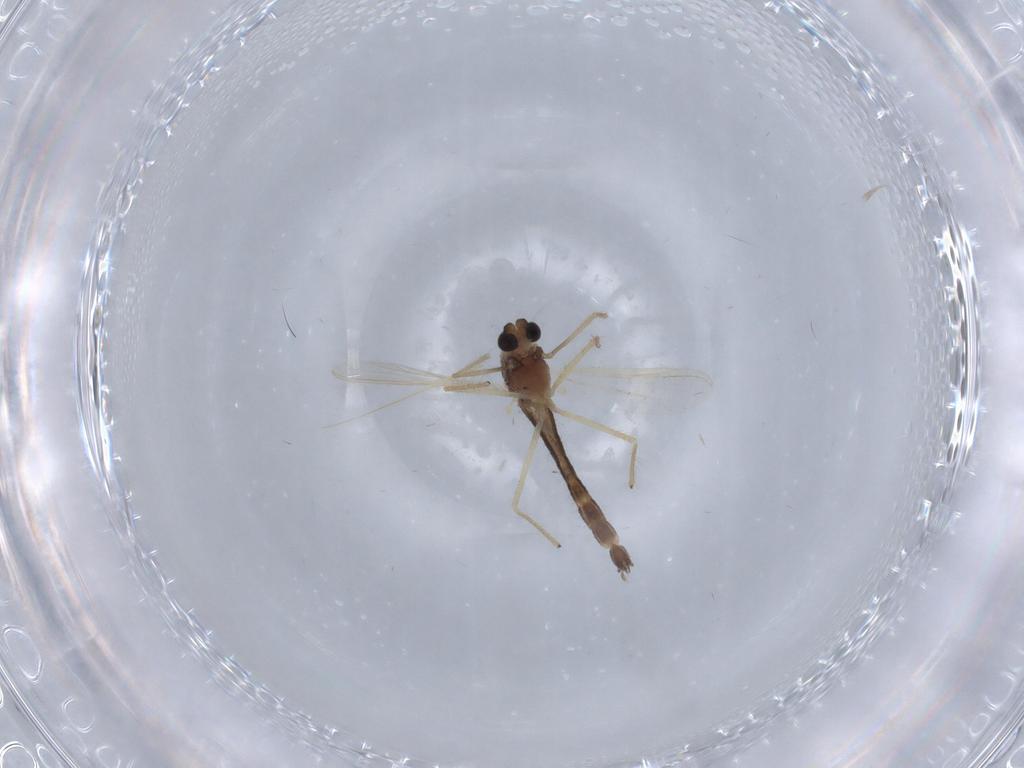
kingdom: Animalia
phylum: Arthropoda
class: Insecta
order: Diptera
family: Chironomidae
